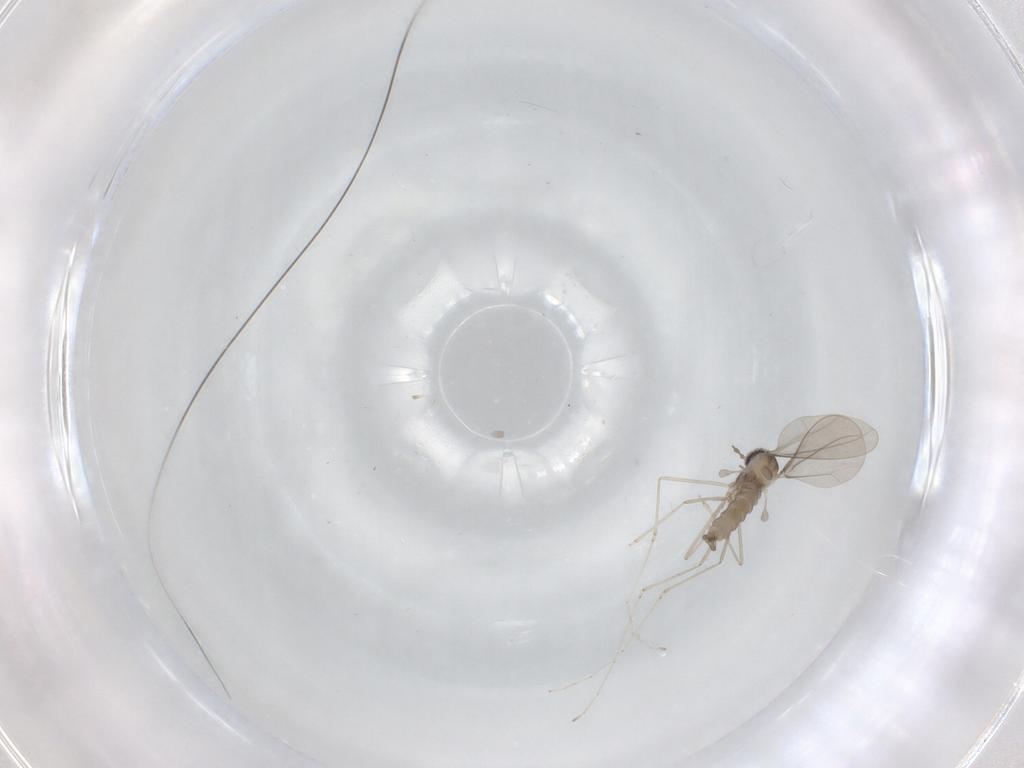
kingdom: Animalia
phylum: Arthropoda
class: Insecta
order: Diptera
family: Cecidomyiidae
